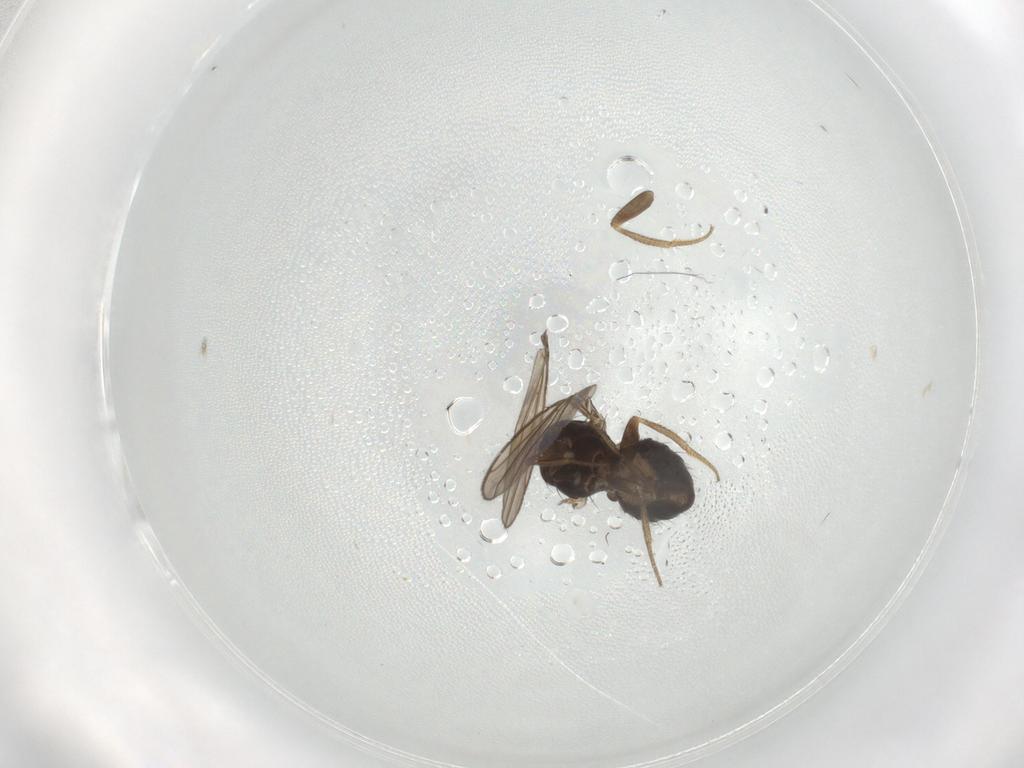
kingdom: Animalia
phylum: Arthropoda
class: Insecta
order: Diptera
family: Drosophilidae
